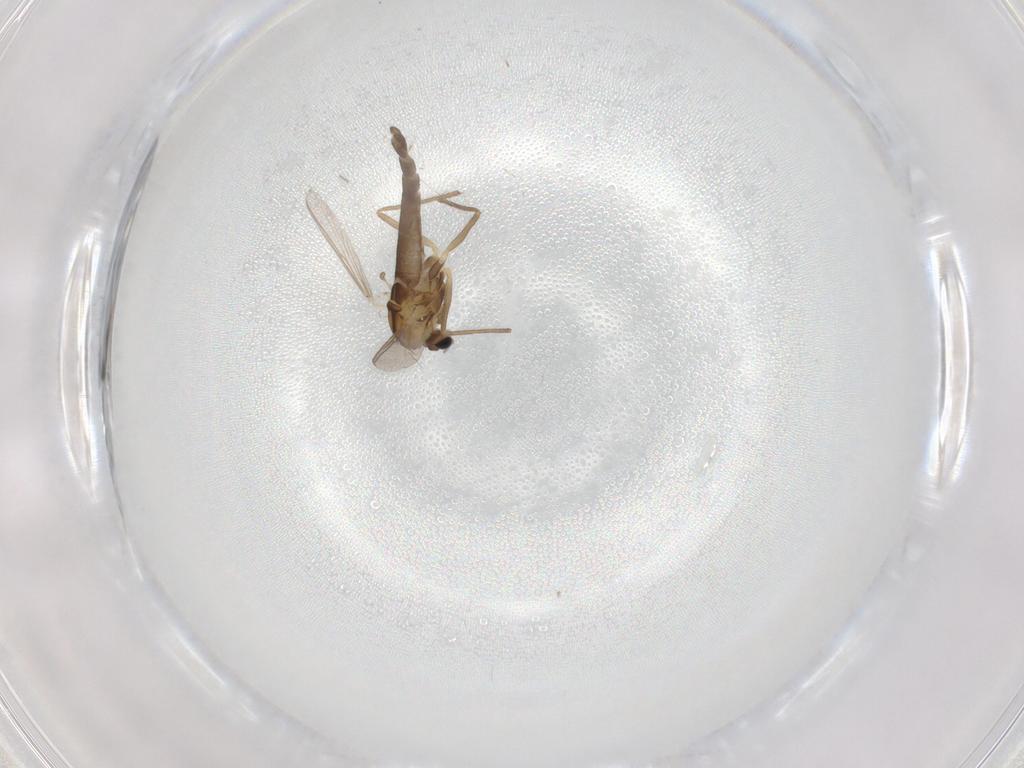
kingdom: Animalia
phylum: Arthropoda
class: Insecta
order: Diptera
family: Chironomidae
